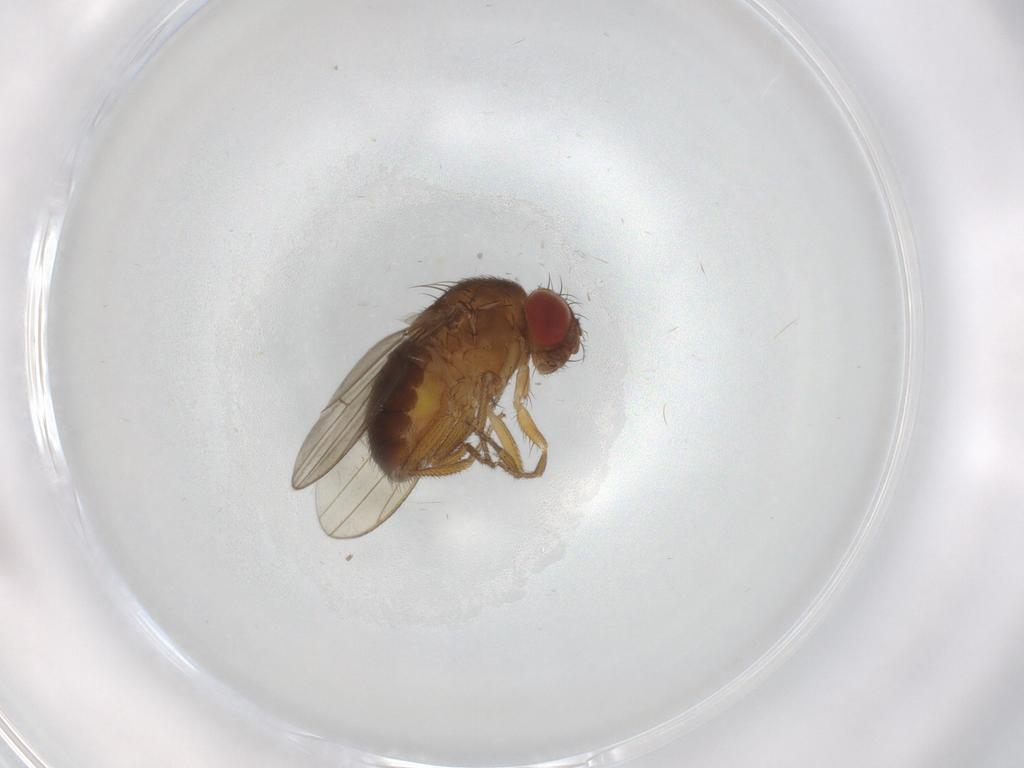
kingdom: Animalia
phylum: Arthropoda
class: Insecta
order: Diptera
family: Drosophilidae
